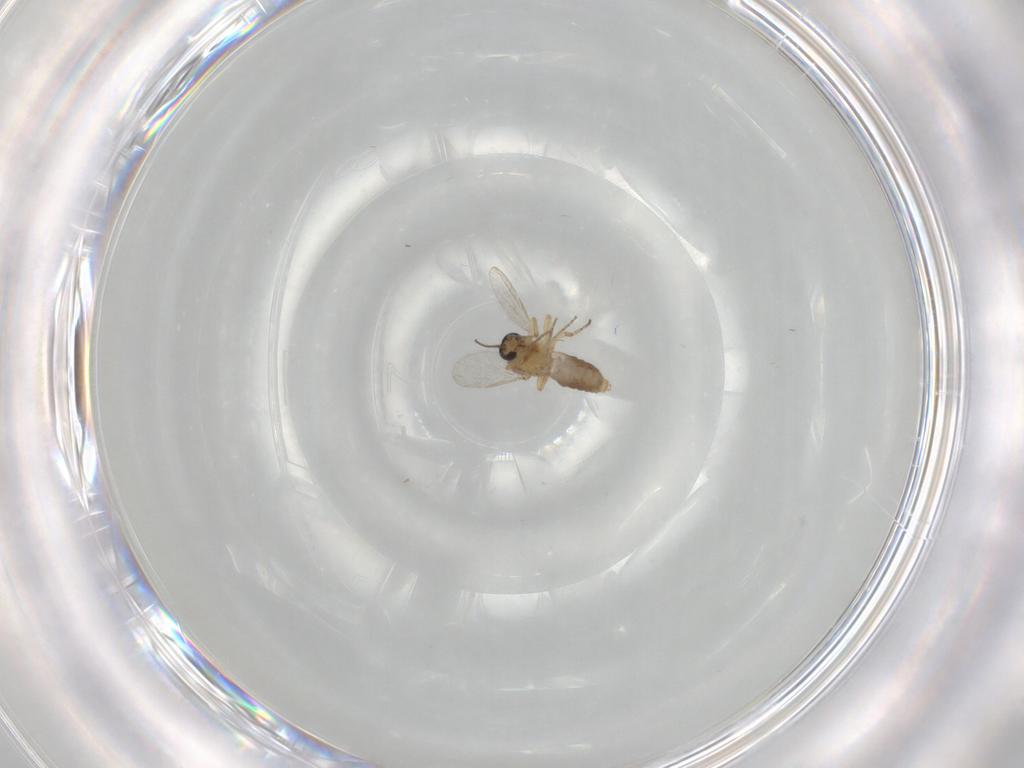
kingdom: Animalia
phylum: Arthropoda
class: Insecta
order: Diptera
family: Ceratopogonidae
